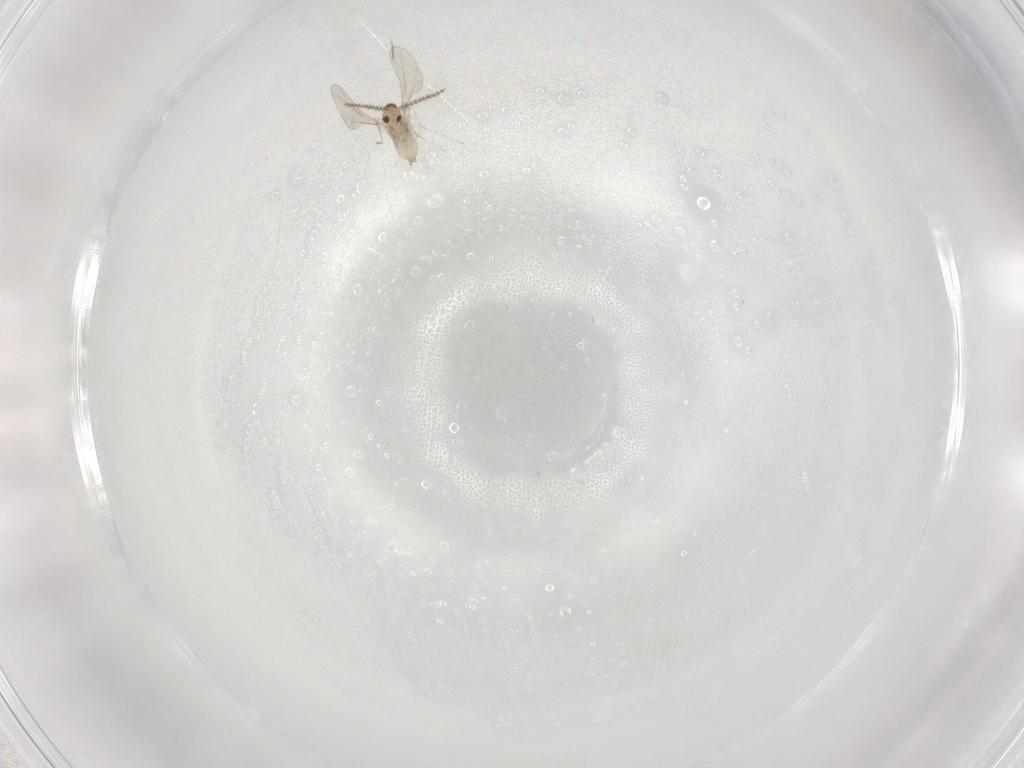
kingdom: Animalia
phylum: Arthropoda
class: Insecta
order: Diptera
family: Cecidomyiidae
